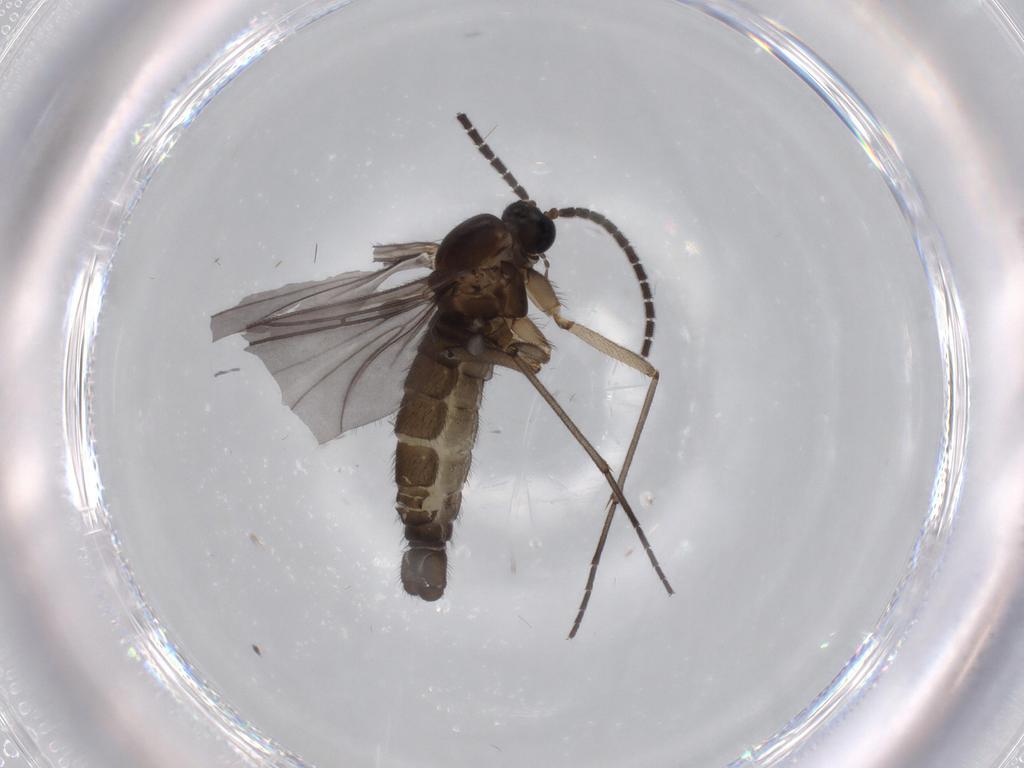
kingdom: Animalia
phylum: Arthropoda
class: Insecta
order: Diptera
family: Sciaridae
